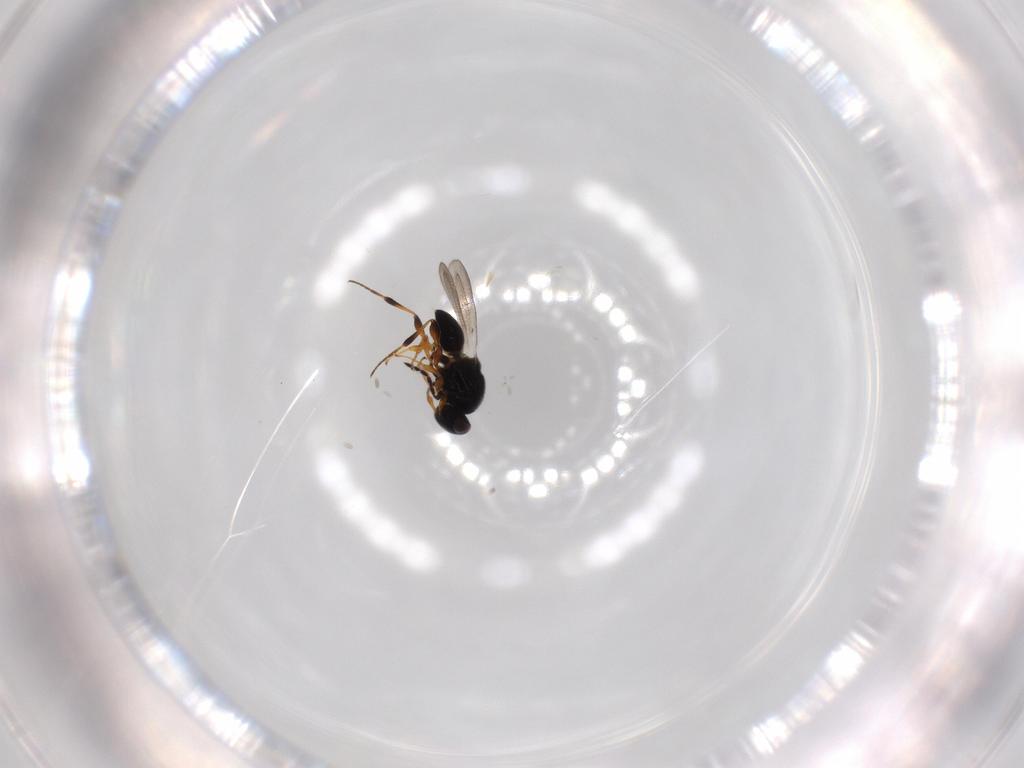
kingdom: Animalia
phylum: Arthropoda
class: Insecta
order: Hymenoptera
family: Platygastridae
